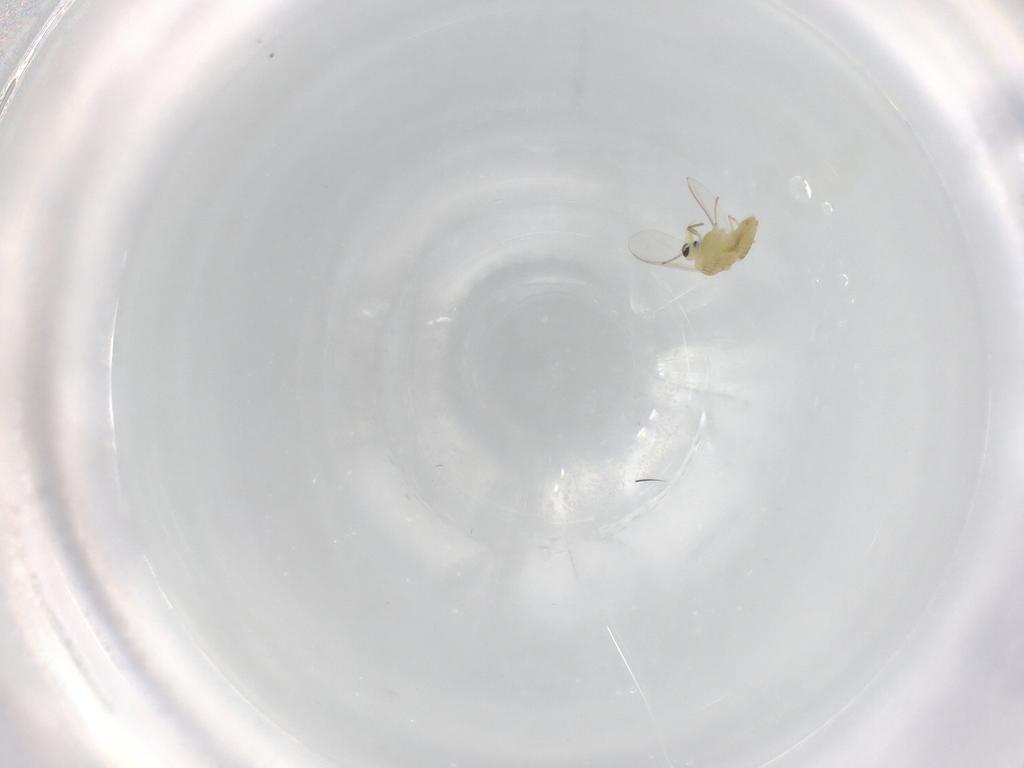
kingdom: Animalia
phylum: Arthropoda
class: Insecta
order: Diptera
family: Chironomidae
